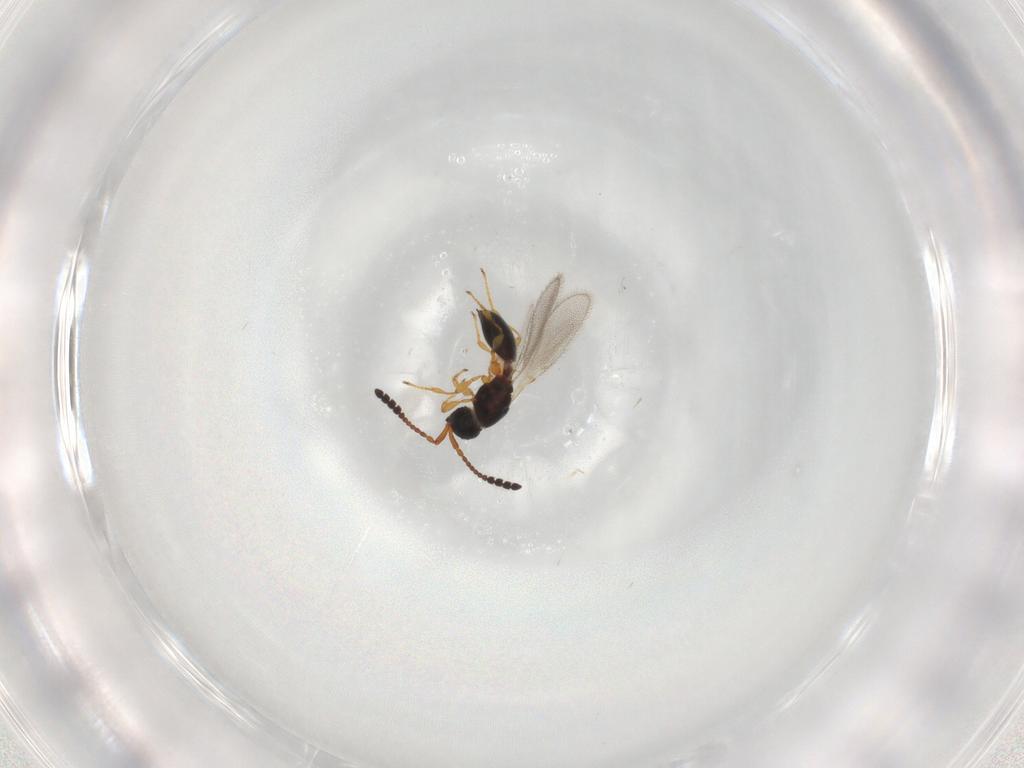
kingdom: Animalia
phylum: Arthropoda
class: Insecta
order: Hymenoptera
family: Diapriidae
